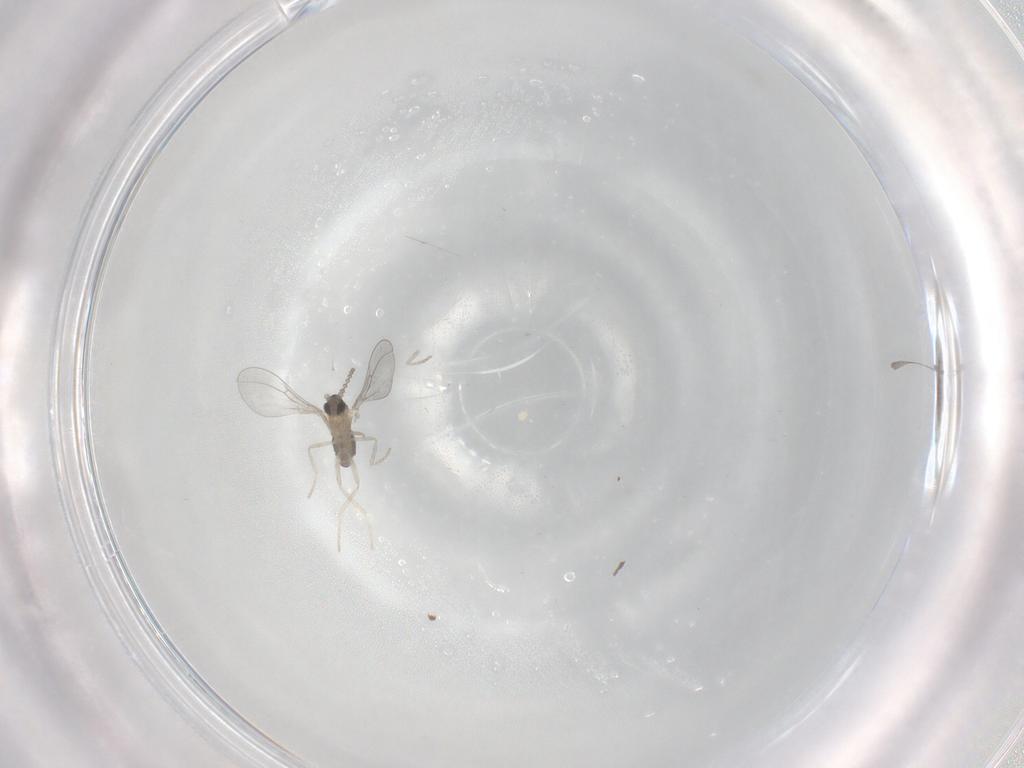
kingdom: Animalia
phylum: Arthropoda
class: Insecta
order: Diptera
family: Cecidomyiidae
